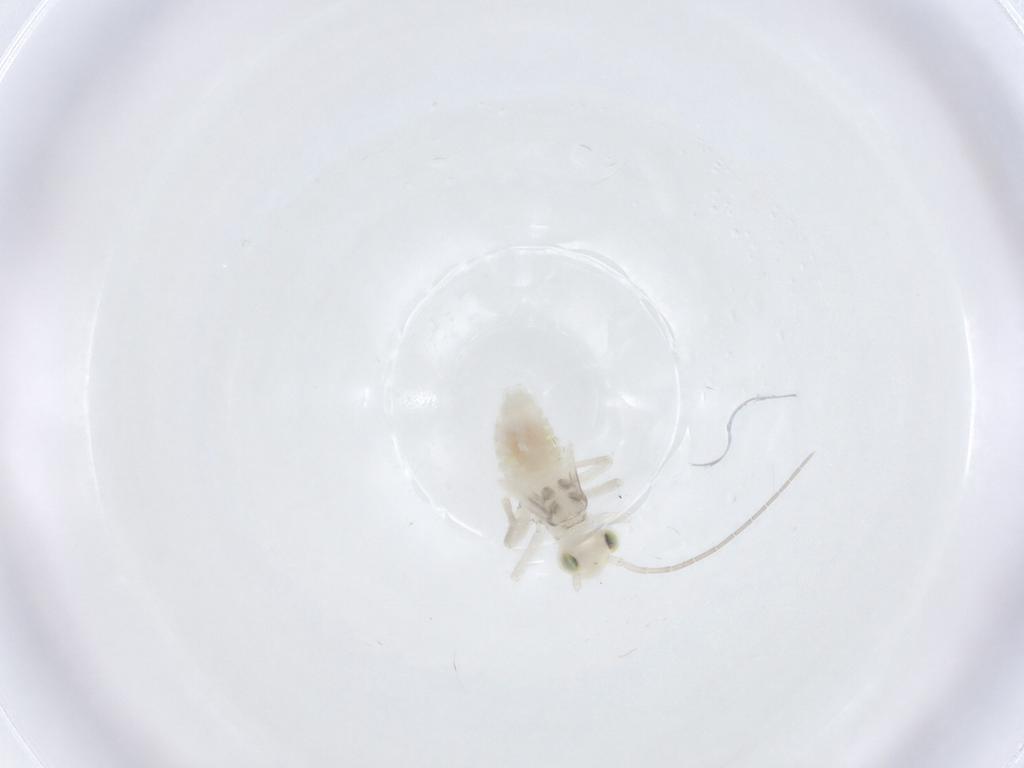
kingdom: Animalia
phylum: Arthropoda
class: Insecta
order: Psocodea
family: Caeciliusidae
